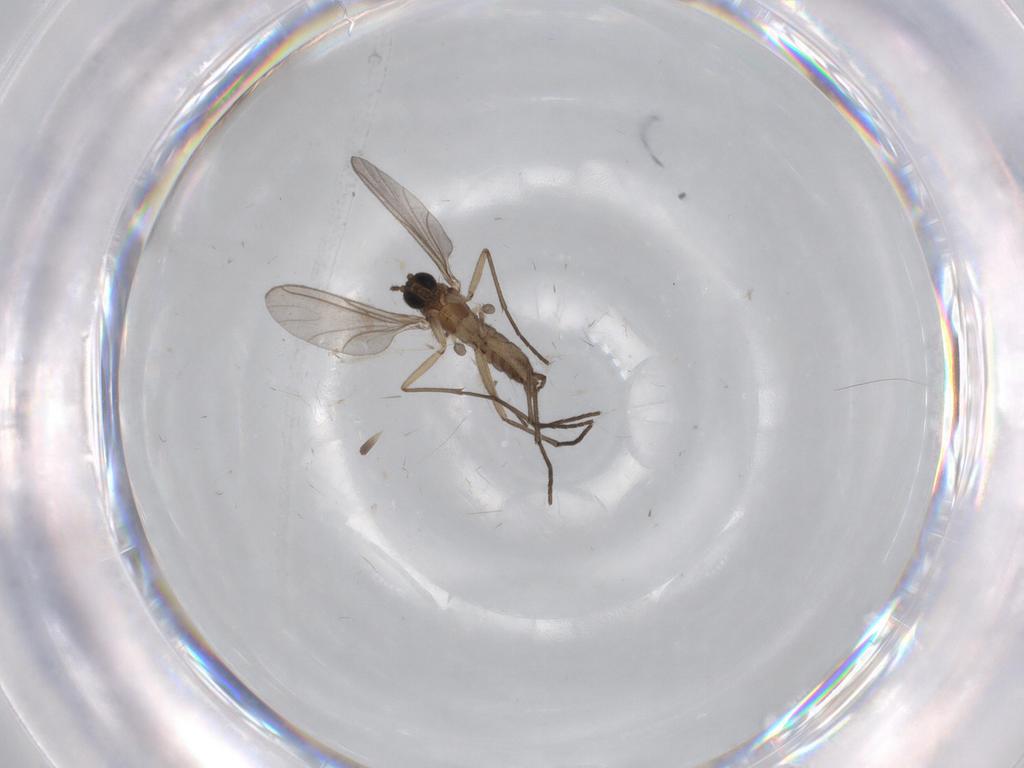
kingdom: Animalia
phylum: Arthropoda
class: Insecta
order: Diptera
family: Sciaridae
